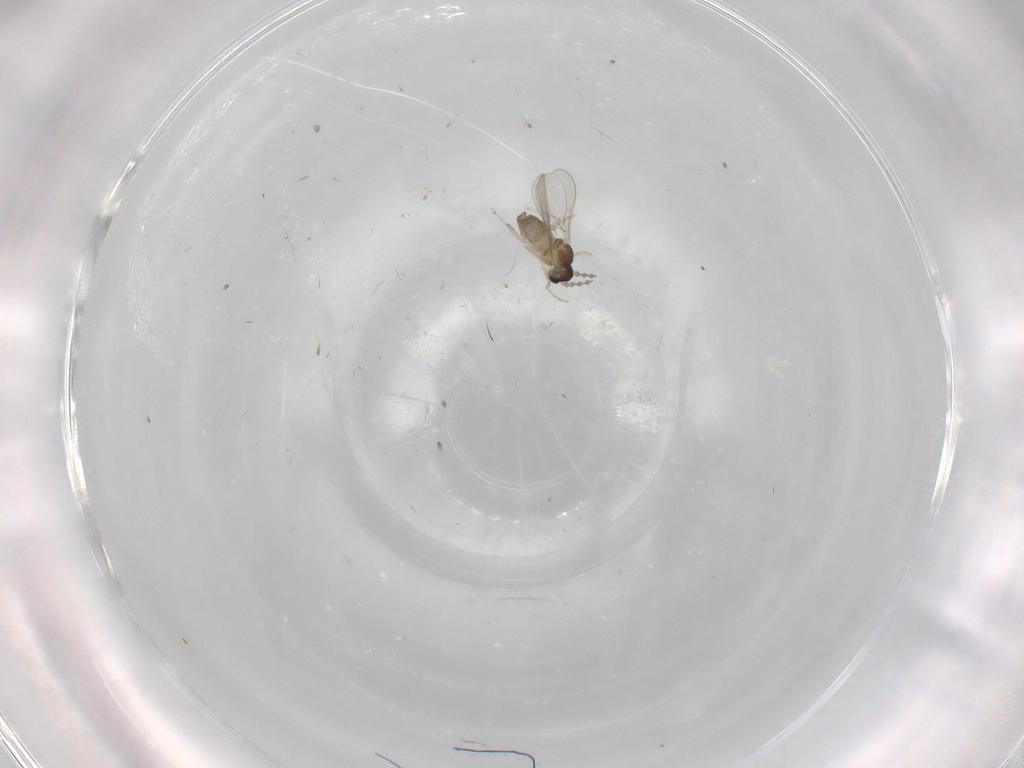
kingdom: Animalia
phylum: Arthropoda
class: Insecta
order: Diptera
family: Cecidomyiidae
